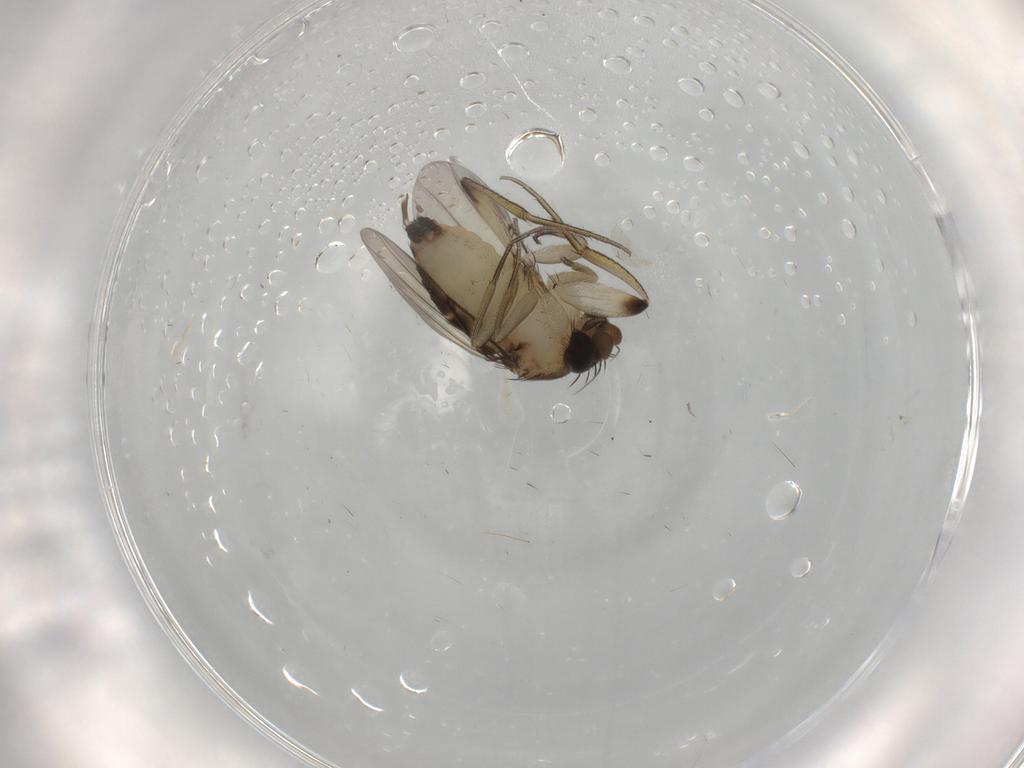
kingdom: Animalia
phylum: Arthropoda
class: Insecta
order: Diptera
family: Phoridae
